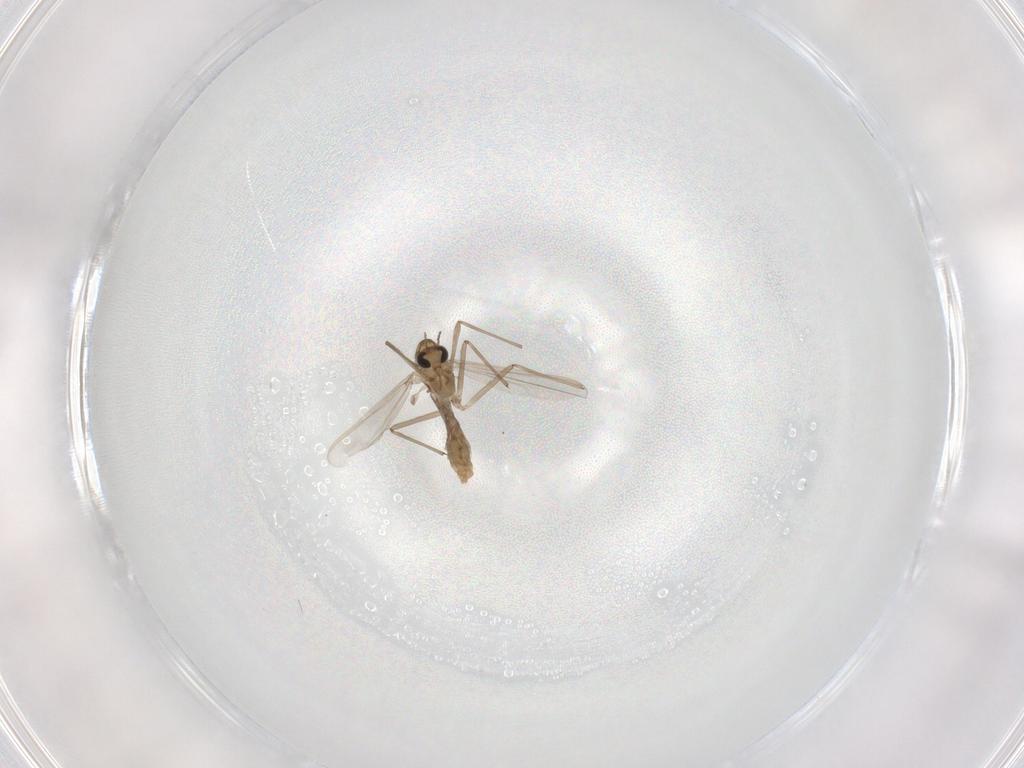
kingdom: Animalia
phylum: Arthropoda
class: Insecta
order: Diptera
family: Chironomidae
